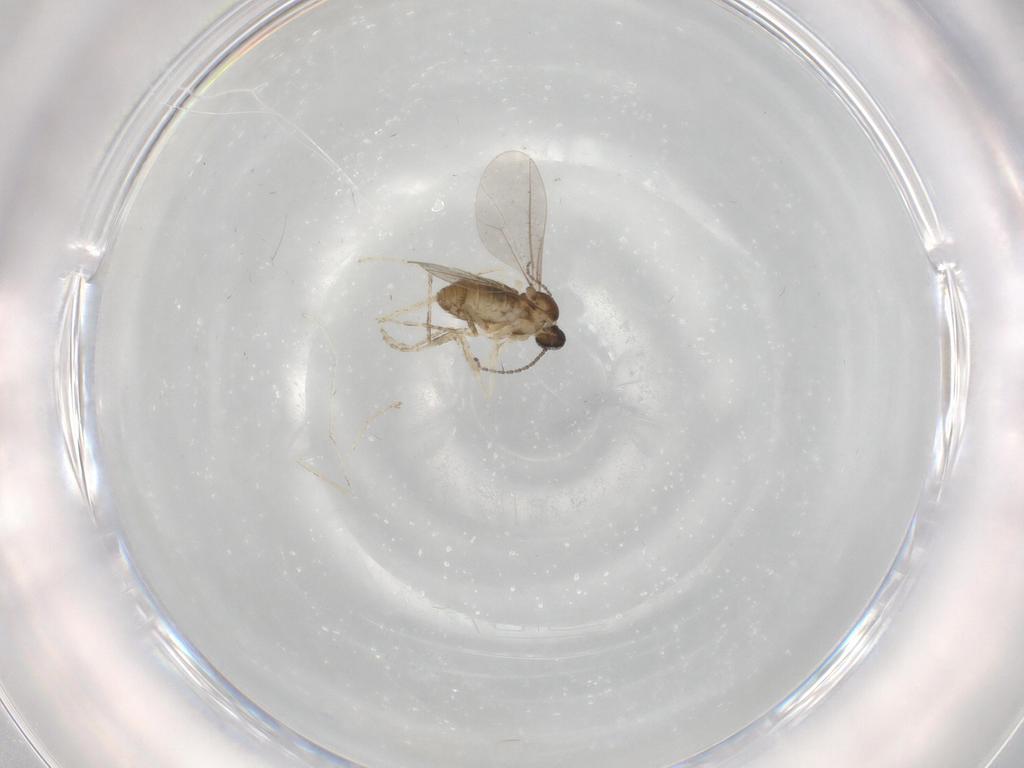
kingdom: Animalia
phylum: Arthropoda
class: Insecta
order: Diptera
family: Cecidomyiidae
